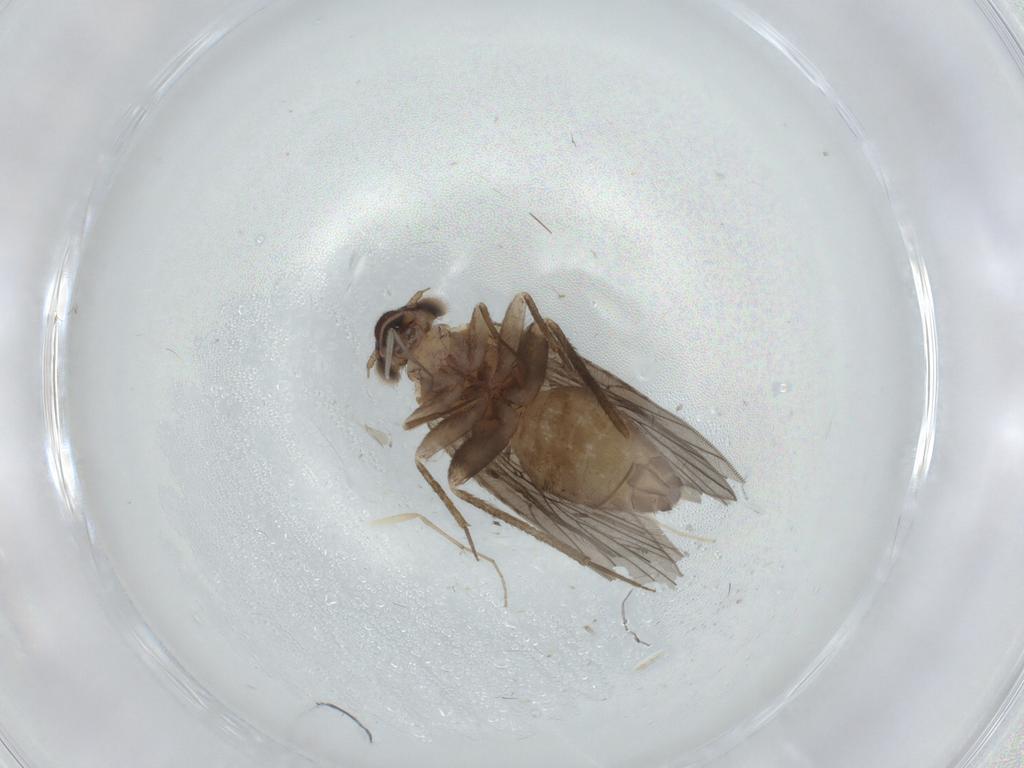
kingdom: Animalia
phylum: Arthropoda
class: Insecta
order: Psocodea
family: Lepidopsocidae
